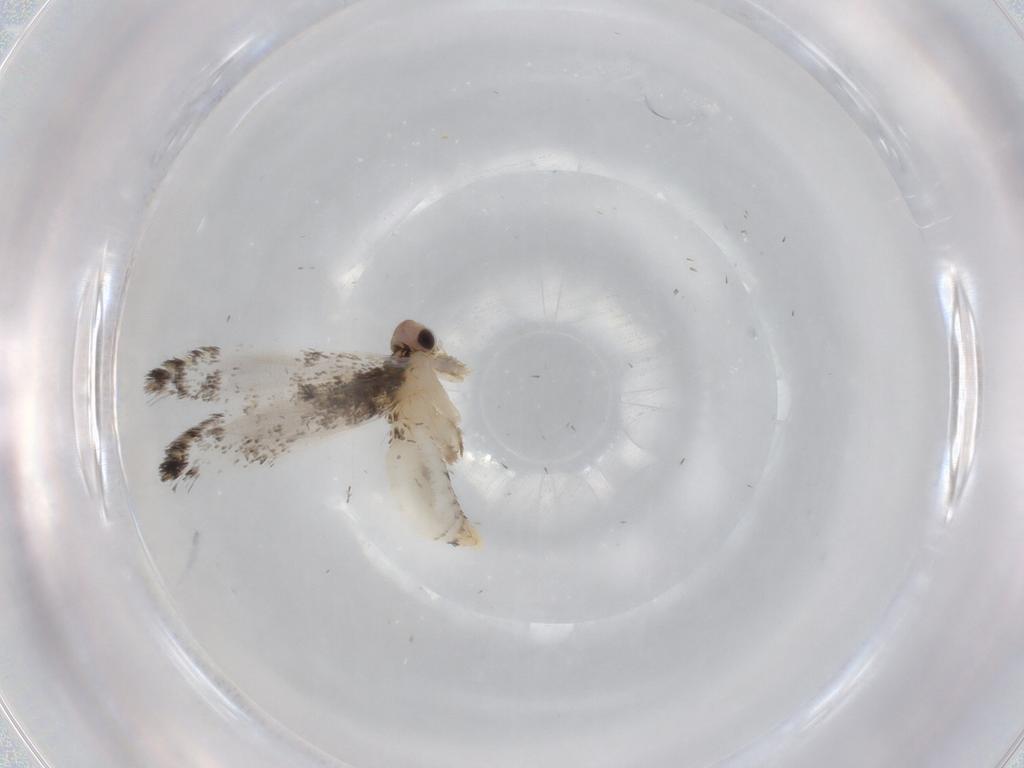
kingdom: Animalia
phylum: Arthropoda
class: Insecta
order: Lepidoptera
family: Tineidae
